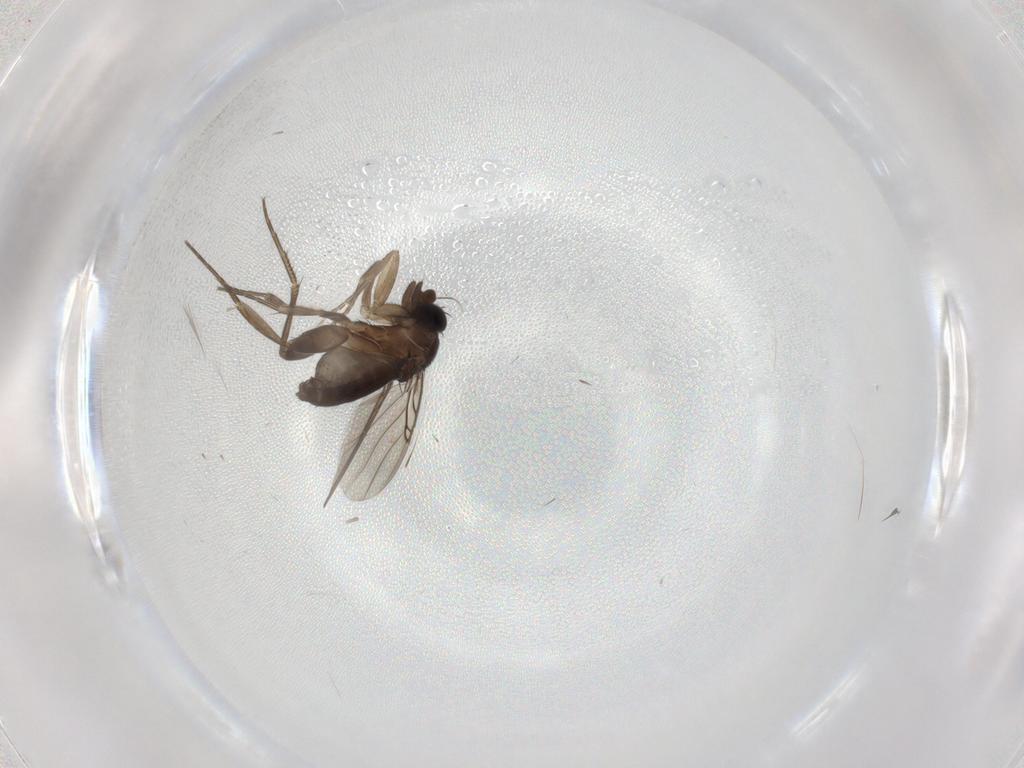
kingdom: Animalia
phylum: Arthropoda
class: Insecta
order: Diptera
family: Phoridae
